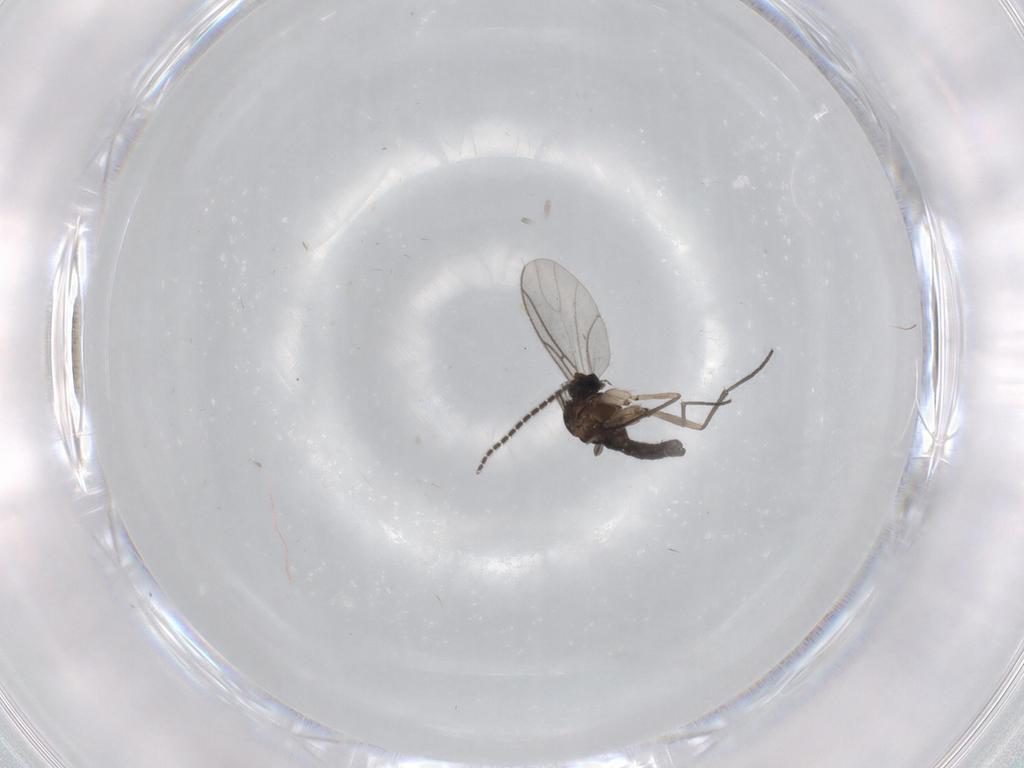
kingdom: Animalia
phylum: Arthropoda
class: Insecta
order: Diptera
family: Sciaridae
